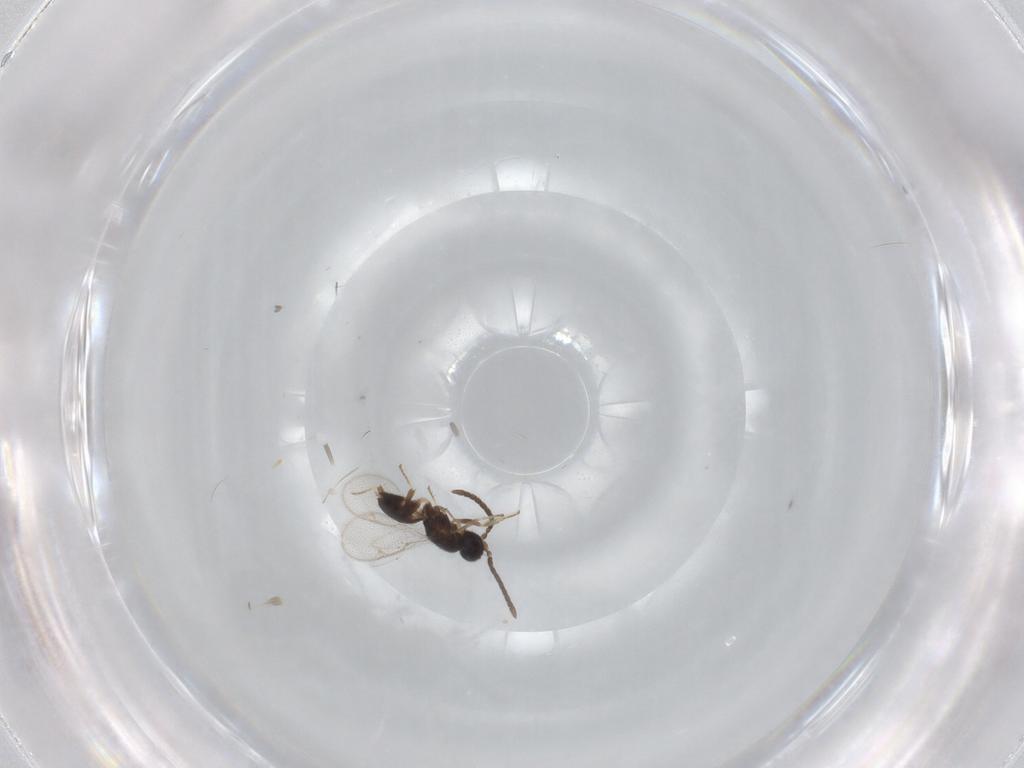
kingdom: Animalia
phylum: Arthropoda
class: Insecta
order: Hymenoptera
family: Eupelmidae
